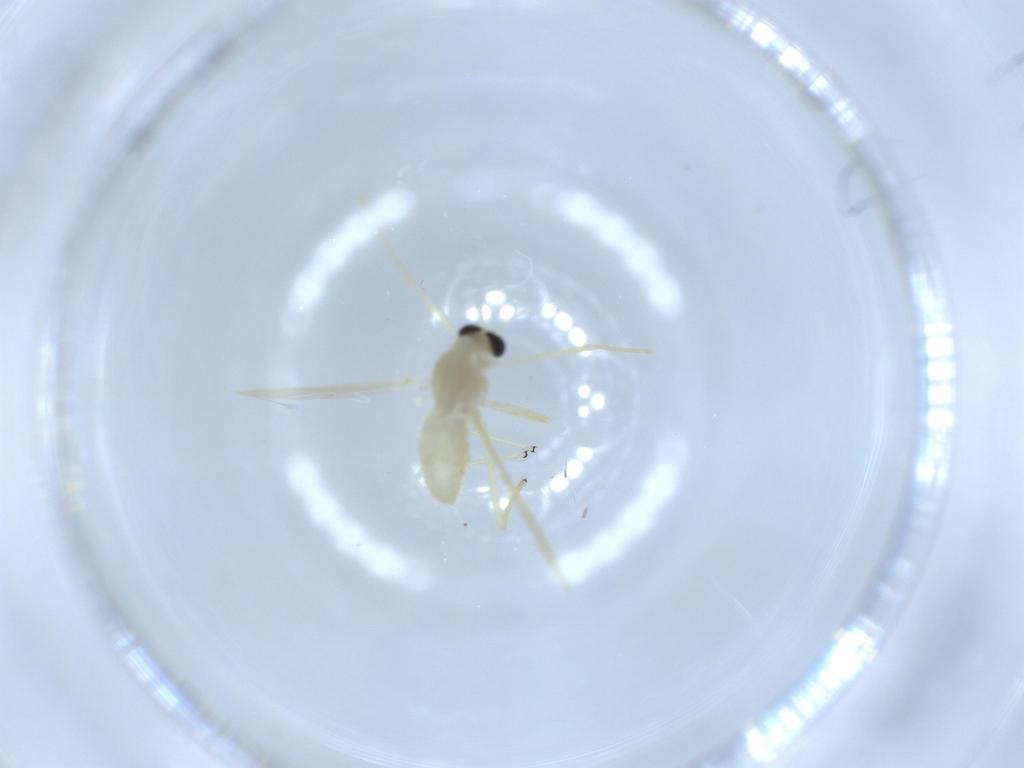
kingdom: Animalia
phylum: Arthropoda
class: Insecta
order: Diptera
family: Chironomidae
